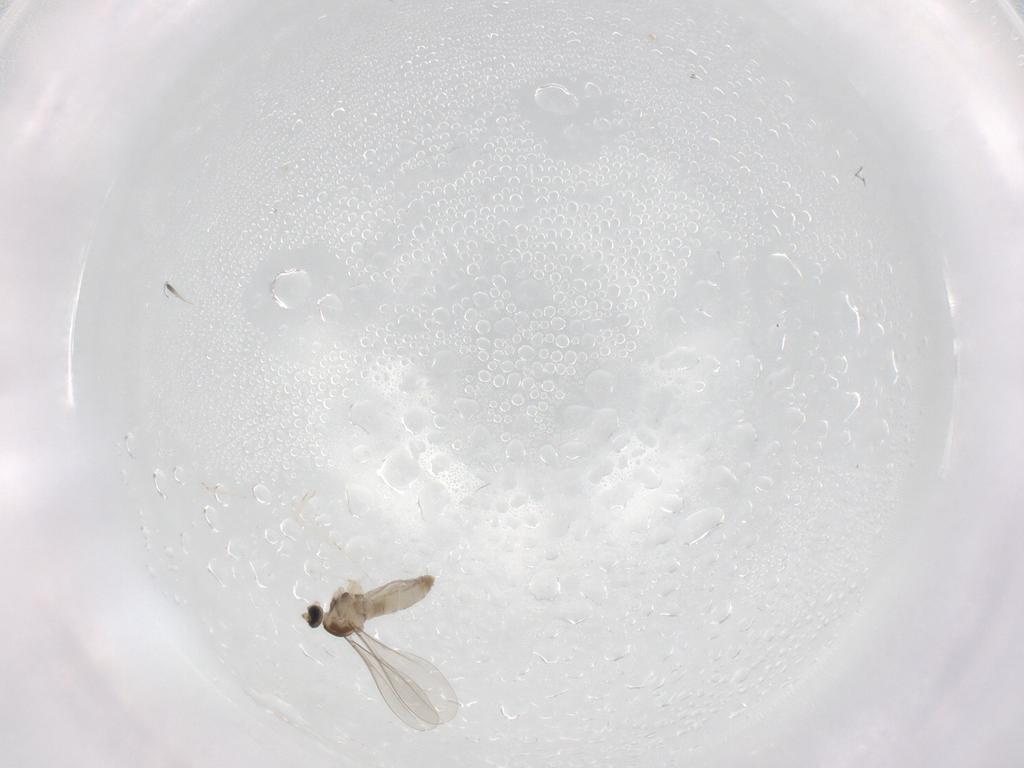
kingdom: Animalia
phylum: Arthropoda
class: Insecta
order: Diptera
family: Ephydridae
